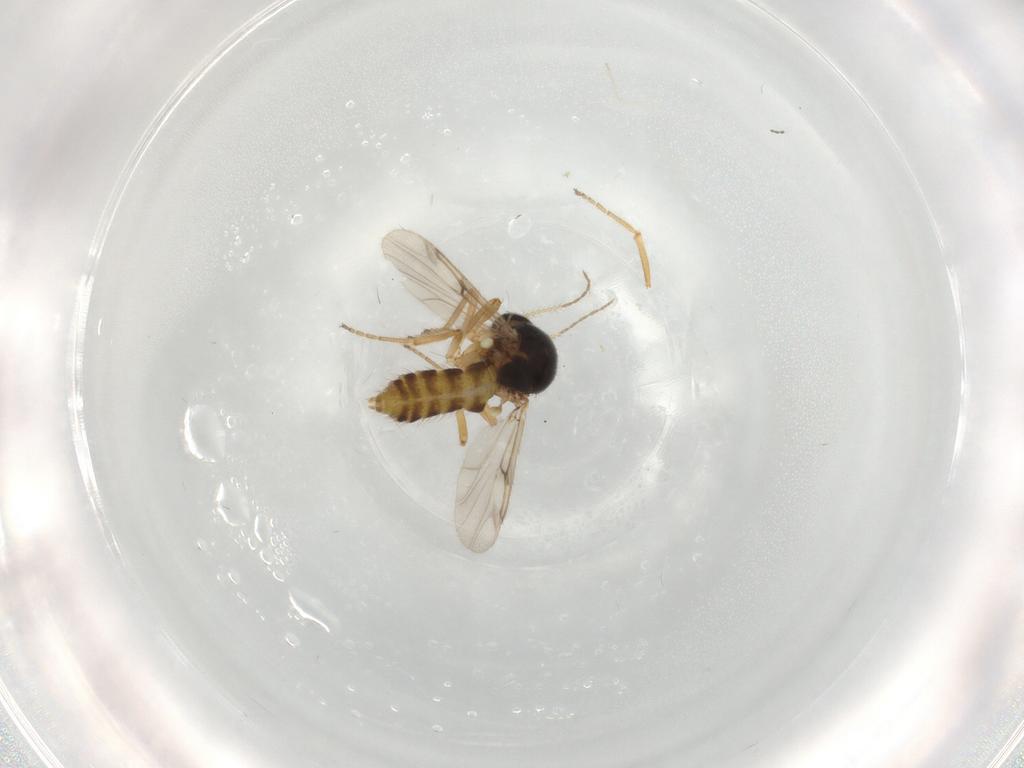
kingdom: Animalia
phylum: Arthropoda
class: Insecta
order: Diptera
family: Ceratopogonidae
